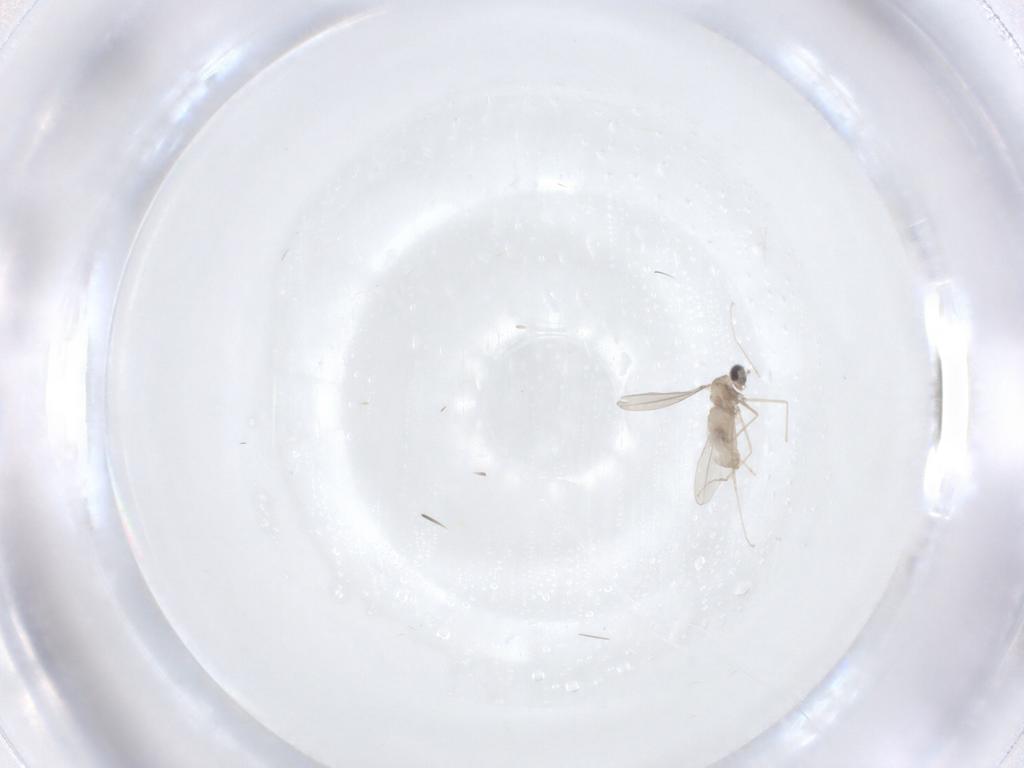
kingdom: Animalia
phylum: Arthropoda
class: Insecta
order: Diptera
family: Cecidomyiidae
